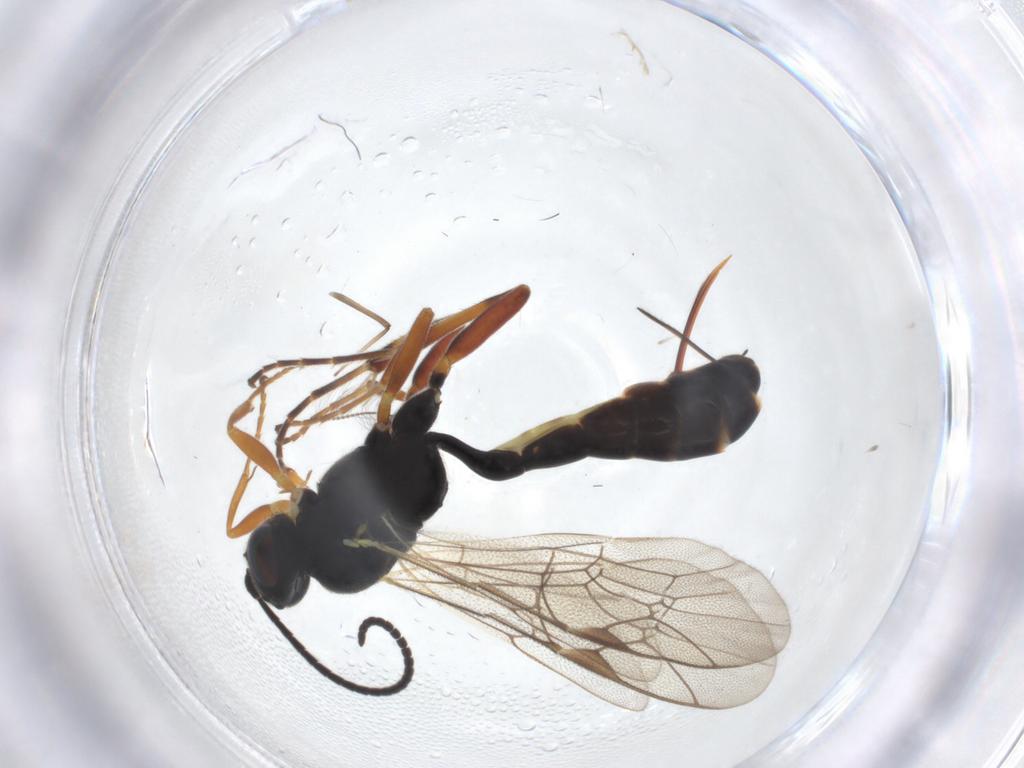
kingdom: Animalia
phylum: Arthropoda
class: Insecta
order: Hymenoptera
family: Ichneumonidae
